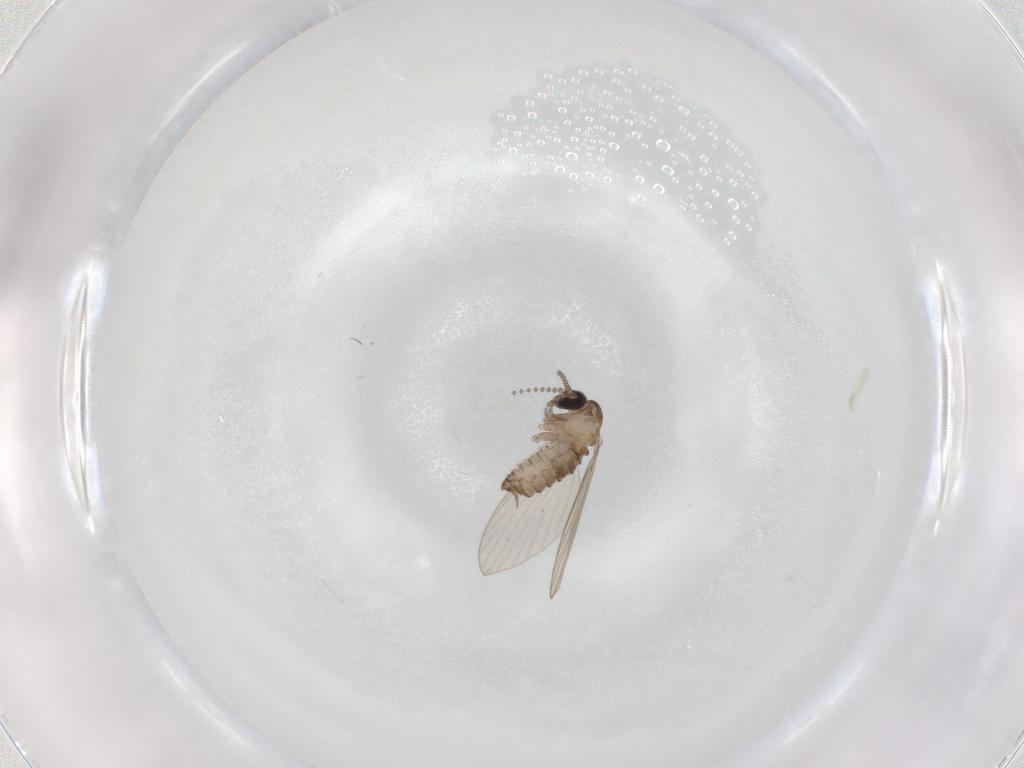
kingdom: Animalia
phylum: Arthropoda
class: Insecta
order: Diptera
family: Psychodidae
